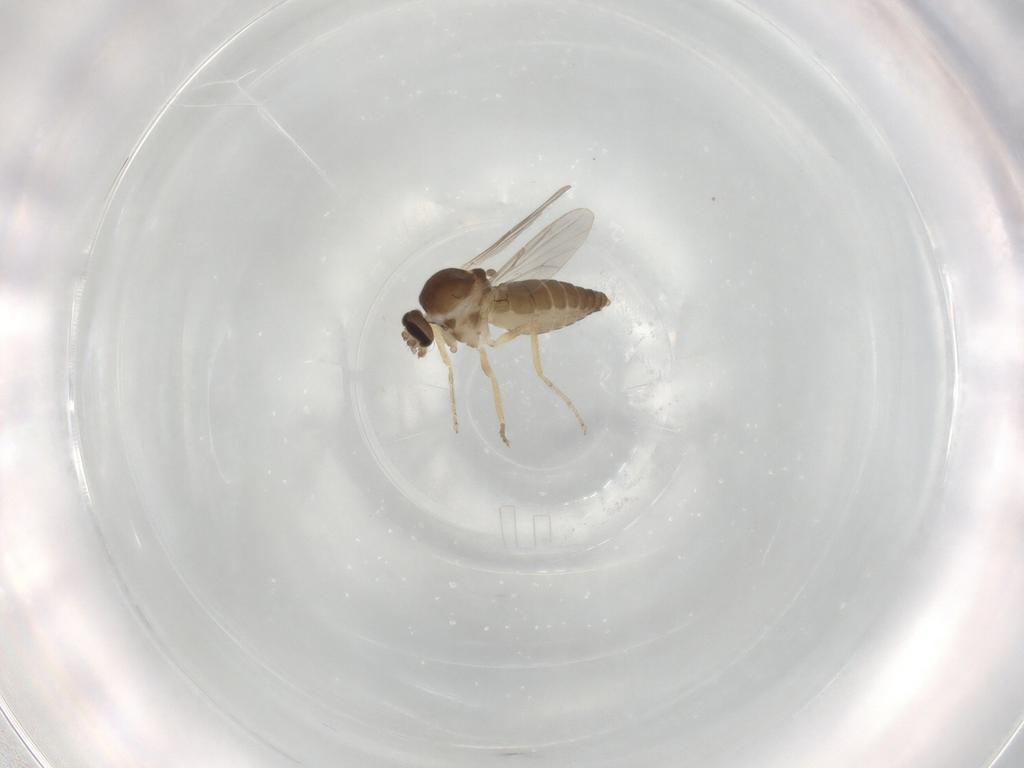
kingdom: Animalia
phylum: Arthropoda
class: Insecta
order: Diptera
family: Ceratopogonidae
